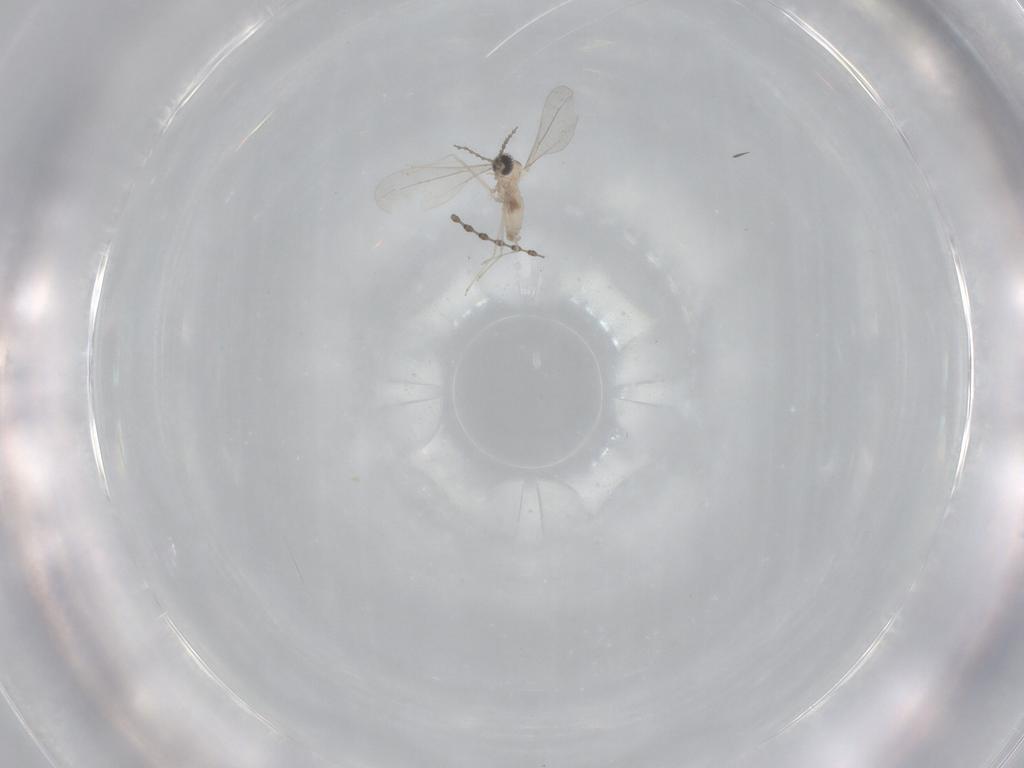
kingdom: Animalia
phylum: Arthropoda
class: Insecta
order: Diptera
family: Cecidomyiidae
